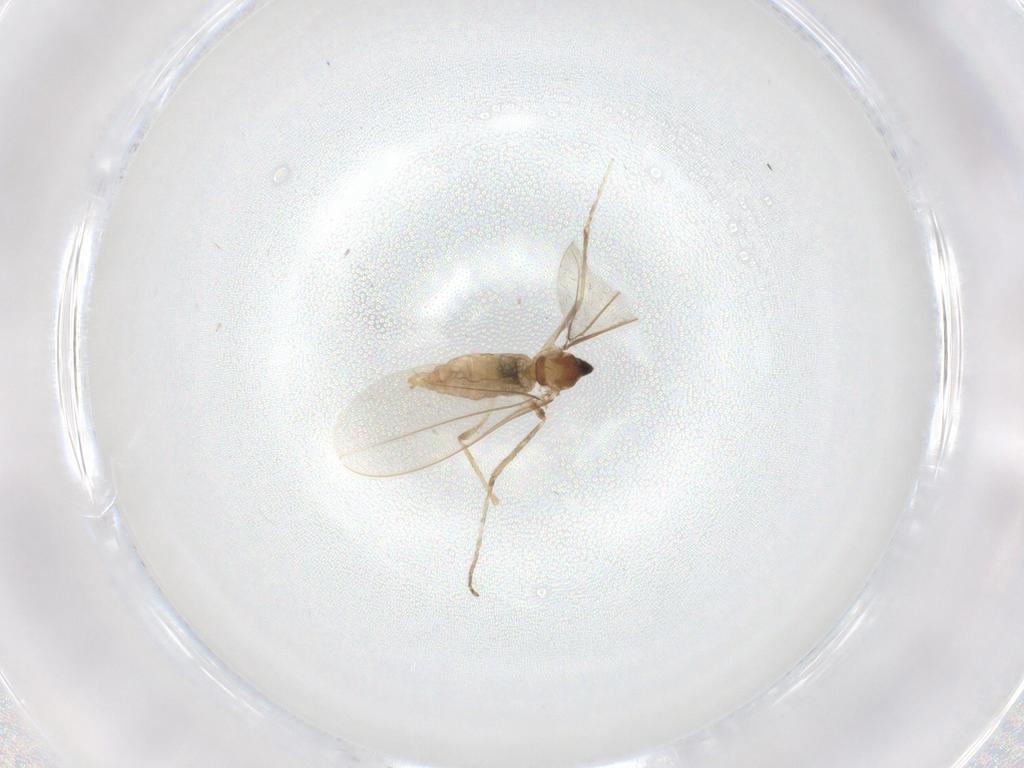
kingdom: Animalia
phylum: Arthropoda
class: Insecta
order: Diptera
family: Cecidomyiidae
